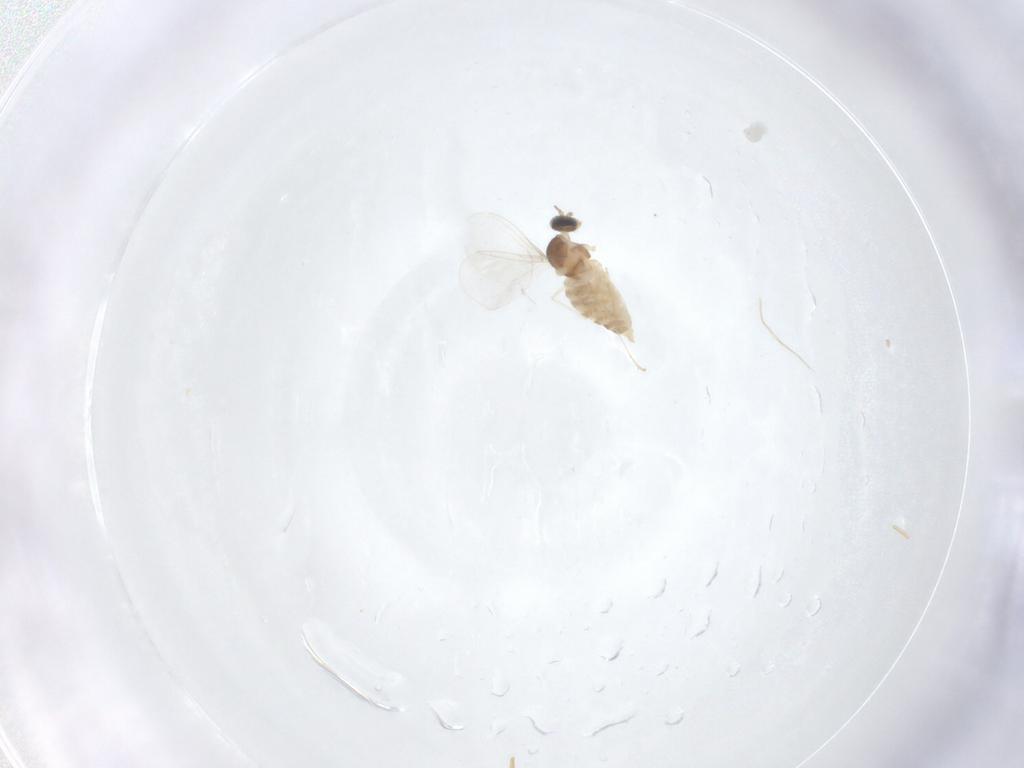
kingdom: Animalia
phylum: Arthropoda
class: Insecta
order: Diptera
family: Cecidomyiidae
